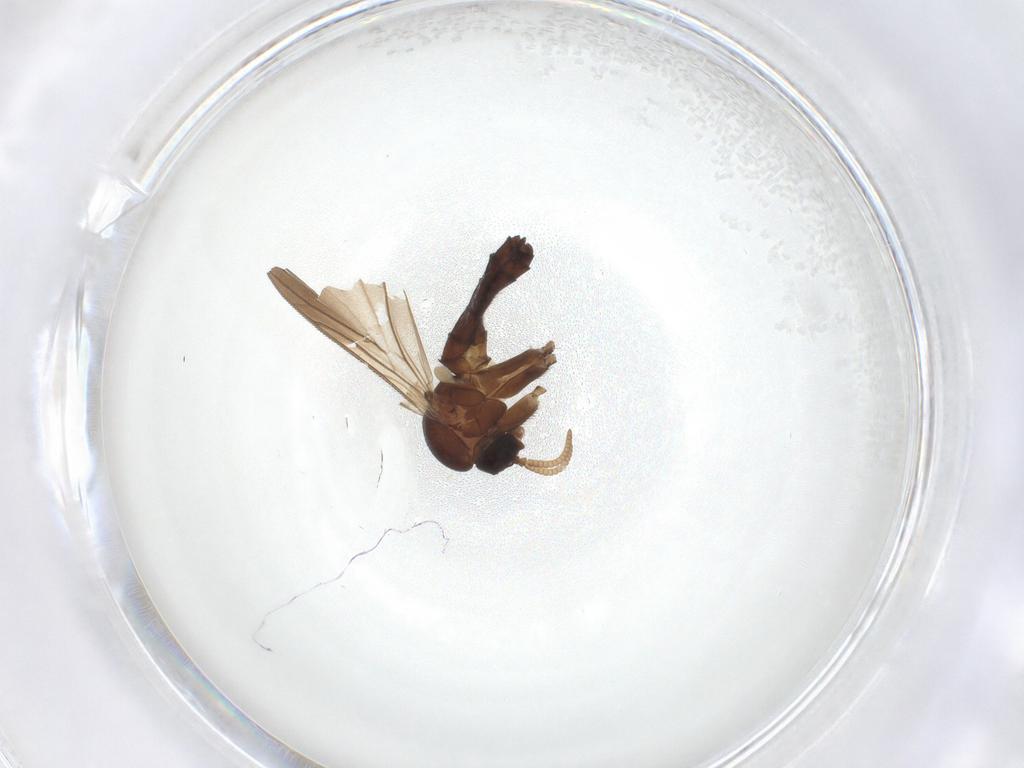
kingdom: Animalia
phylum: Arthropoda
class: Insecta
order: Diptera
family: Keroplatidae
